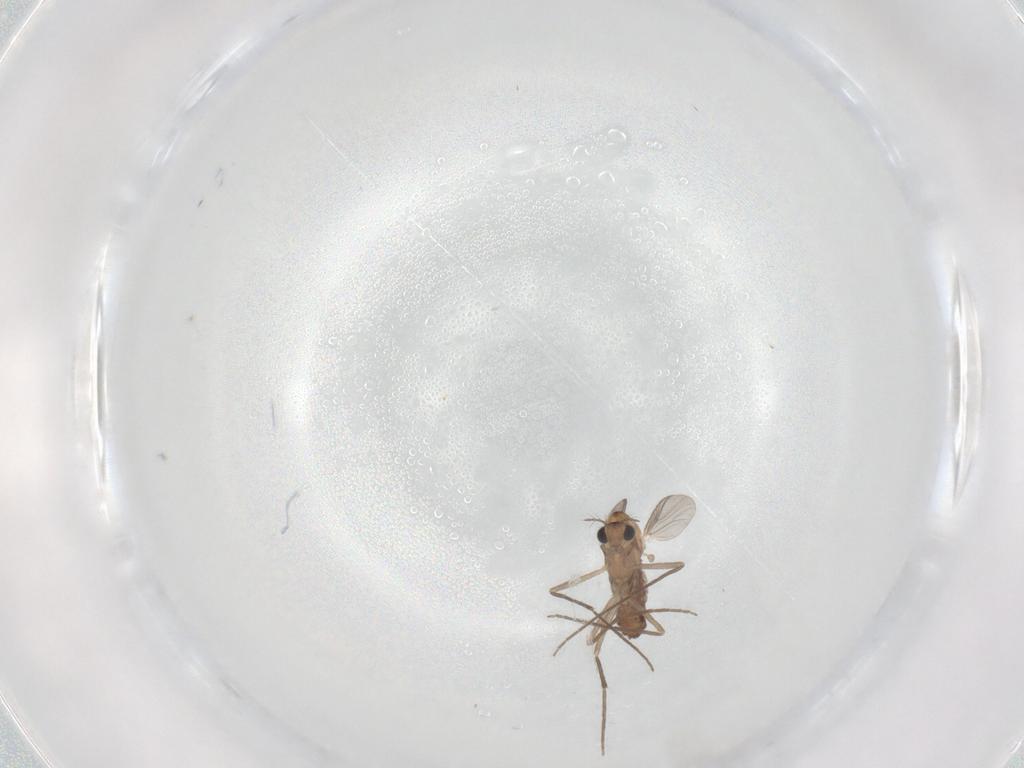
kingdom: Animalia
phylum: Arthropoda
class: Insecta
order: Diptera
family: Chironomidae
